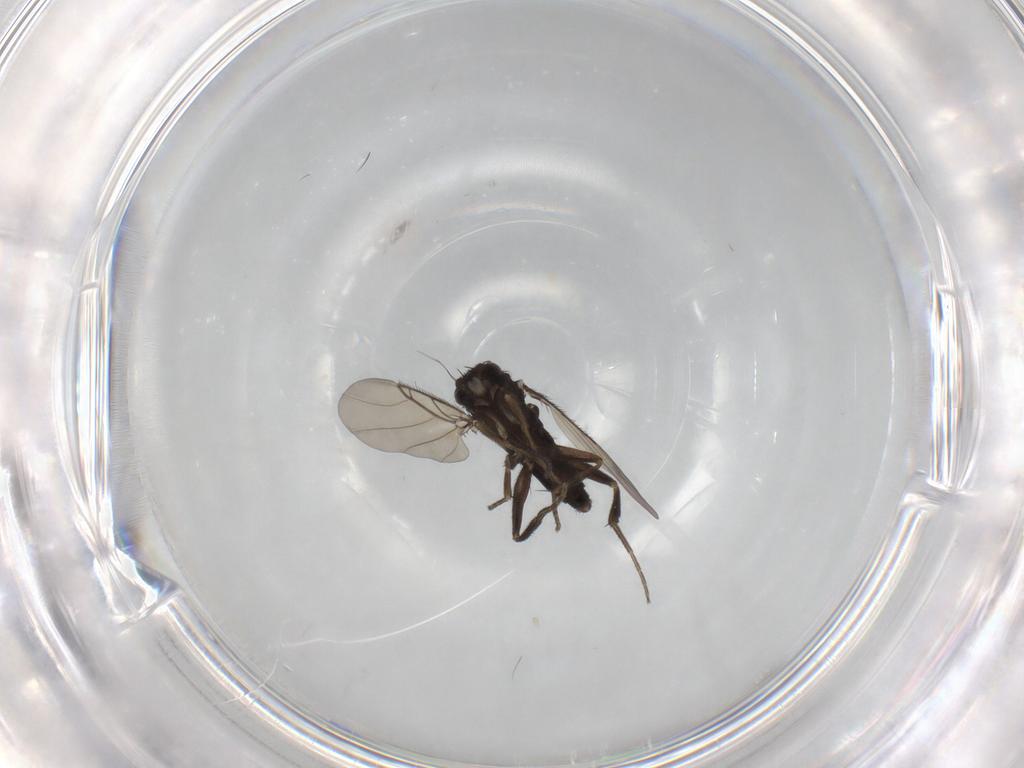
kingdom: Animalia
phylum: Arthropoda
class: Insecta
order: Diptera
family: Phoridae
